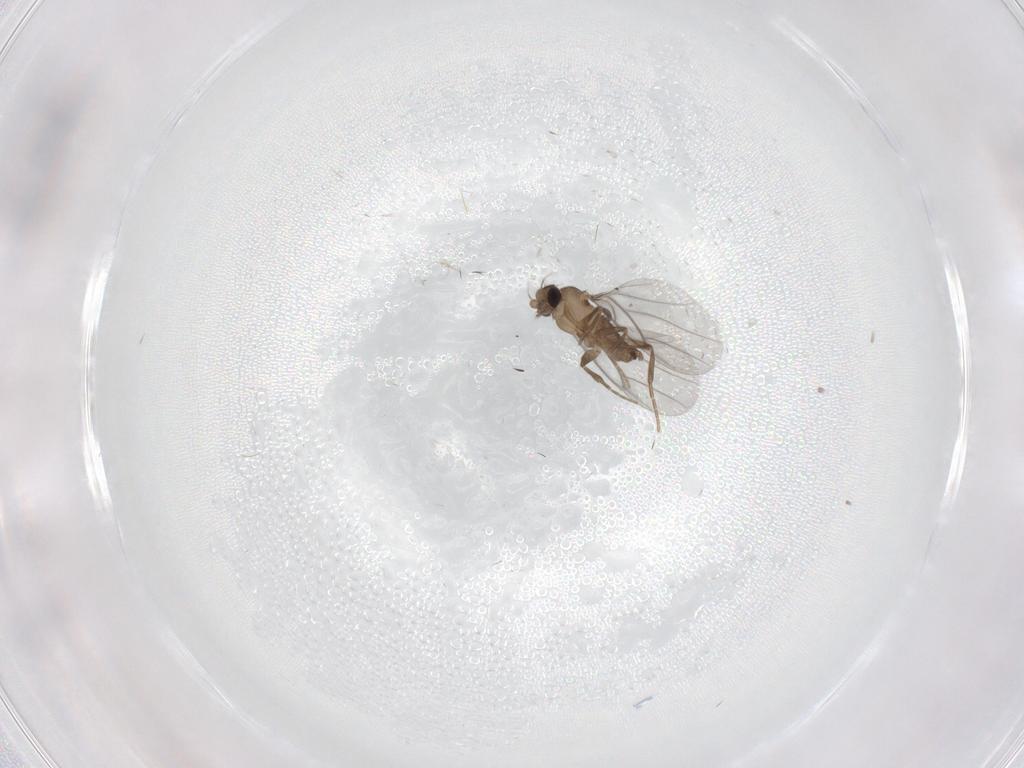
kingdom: Animalia
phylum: Arthropoda
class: Insecta
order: Diptera
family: Psychodidae
